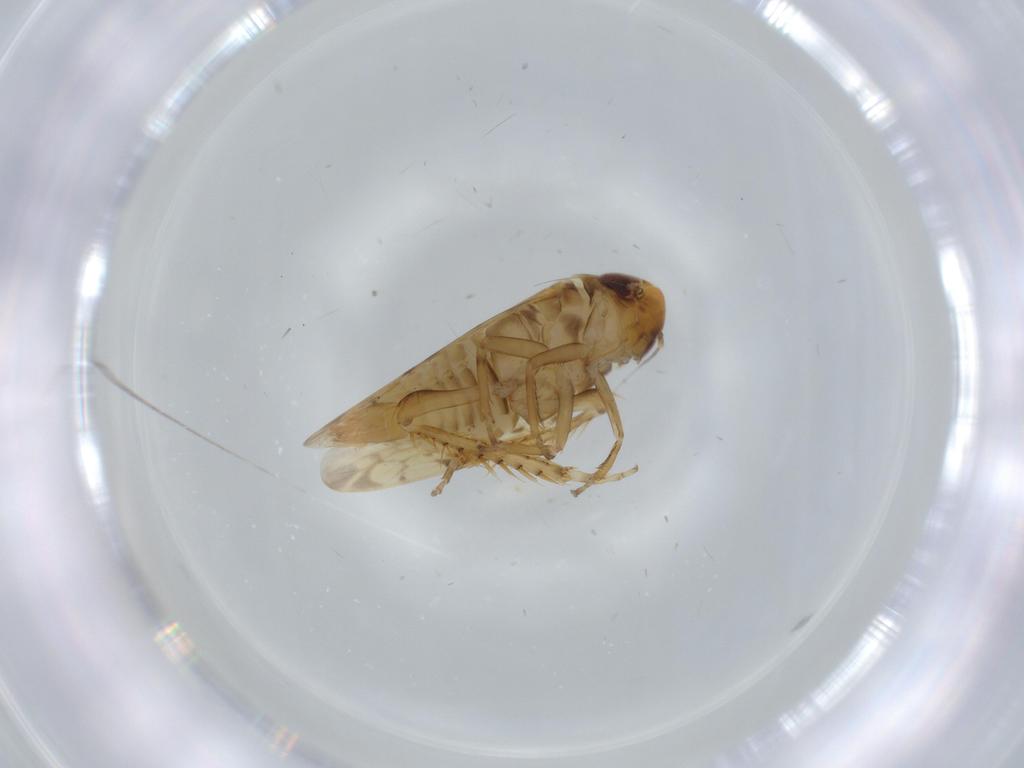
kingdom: Animalia
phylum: Arthropoda
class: Insecta
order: Hemiptera
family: Cicadellidae
